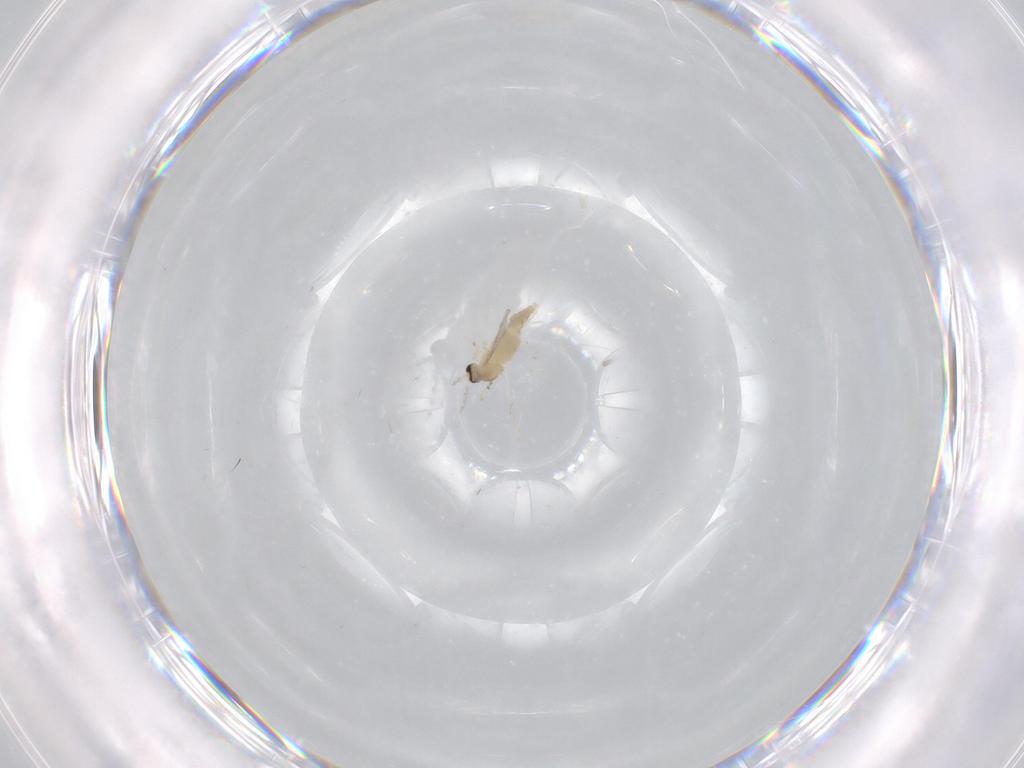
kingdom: Animalia
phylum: Arthropoda
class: Insecta
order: Diptera
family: Cecidomyiidae
